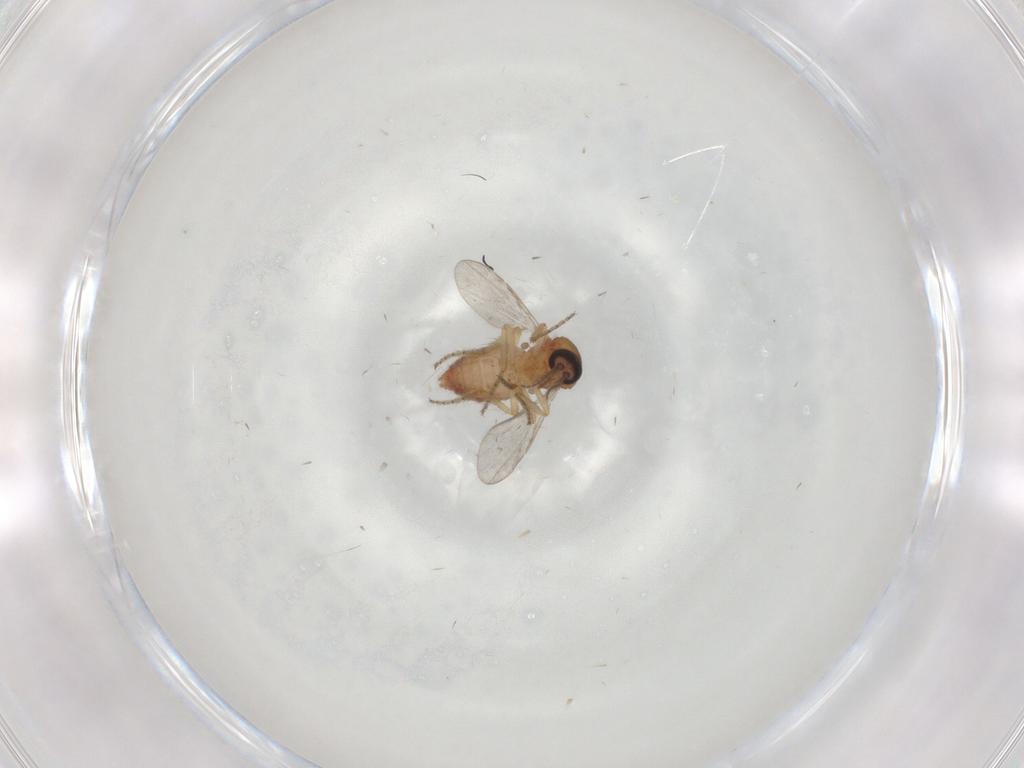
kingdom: Animalia
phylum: Arthropoda
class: Insecta
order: Diptera
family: Ceratopogonidae
